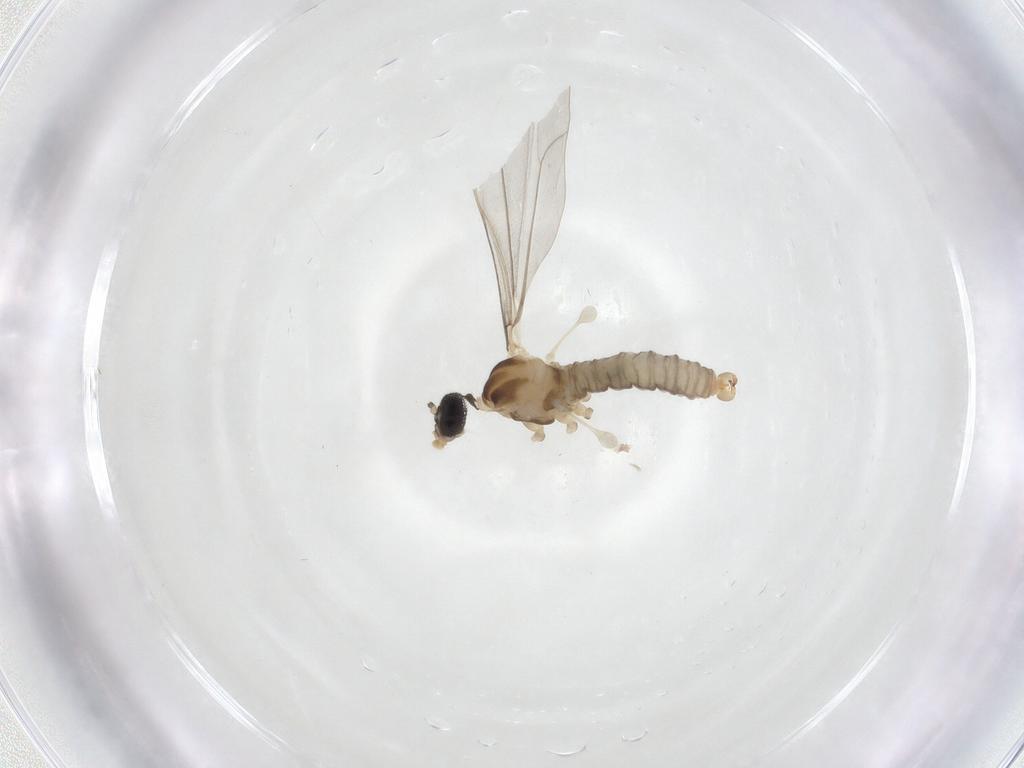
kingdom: Animalia
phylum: Arthropoda
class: Insecta
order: Diptera
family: Cecidomyiidae
